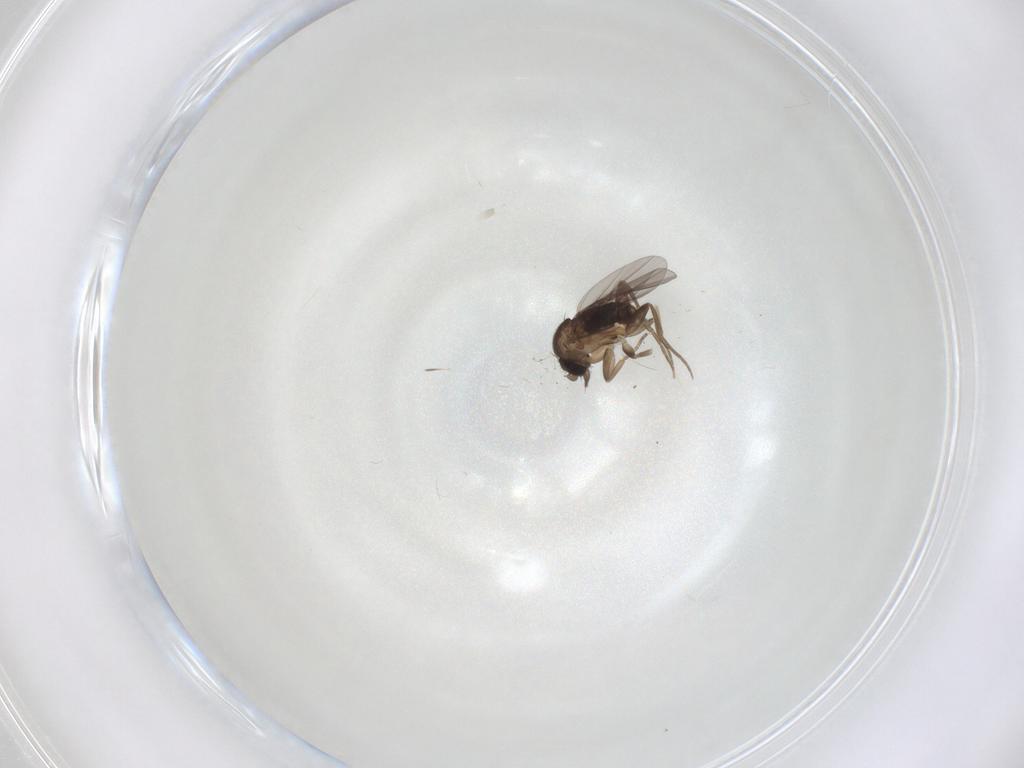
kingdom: Animalia
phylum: Arthropoda
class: Insecta
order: Diptera
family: Phoridae
